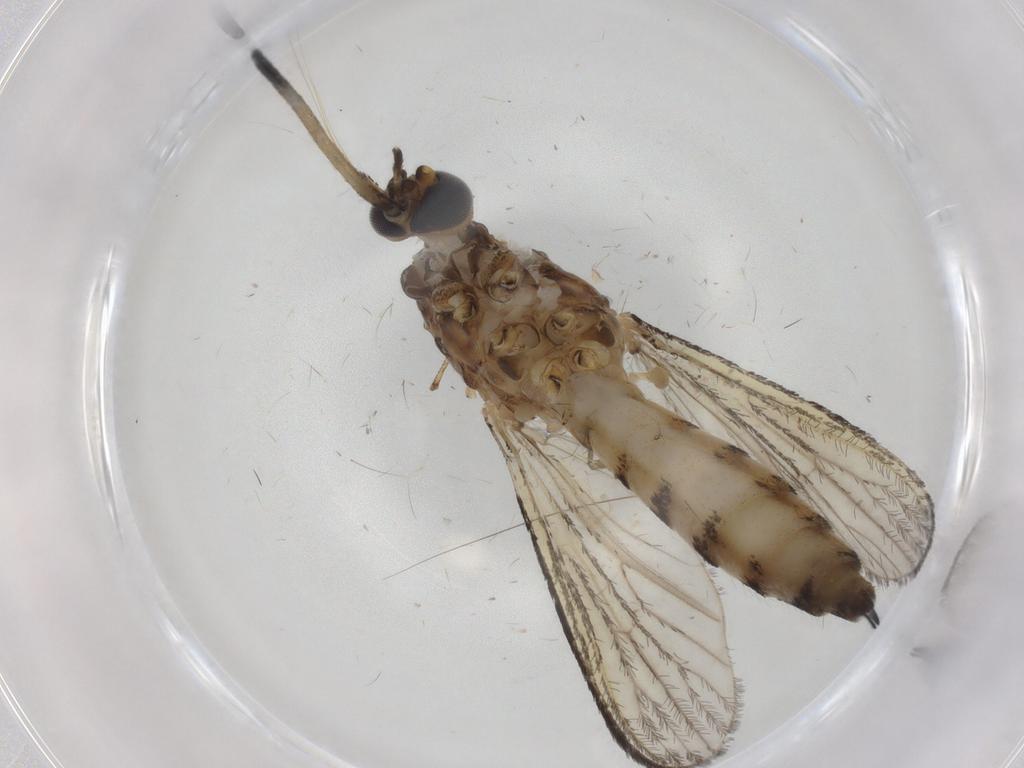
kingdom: Animalia
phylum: Arthropoda
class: Insecta
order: Diptera
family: Culicidae
